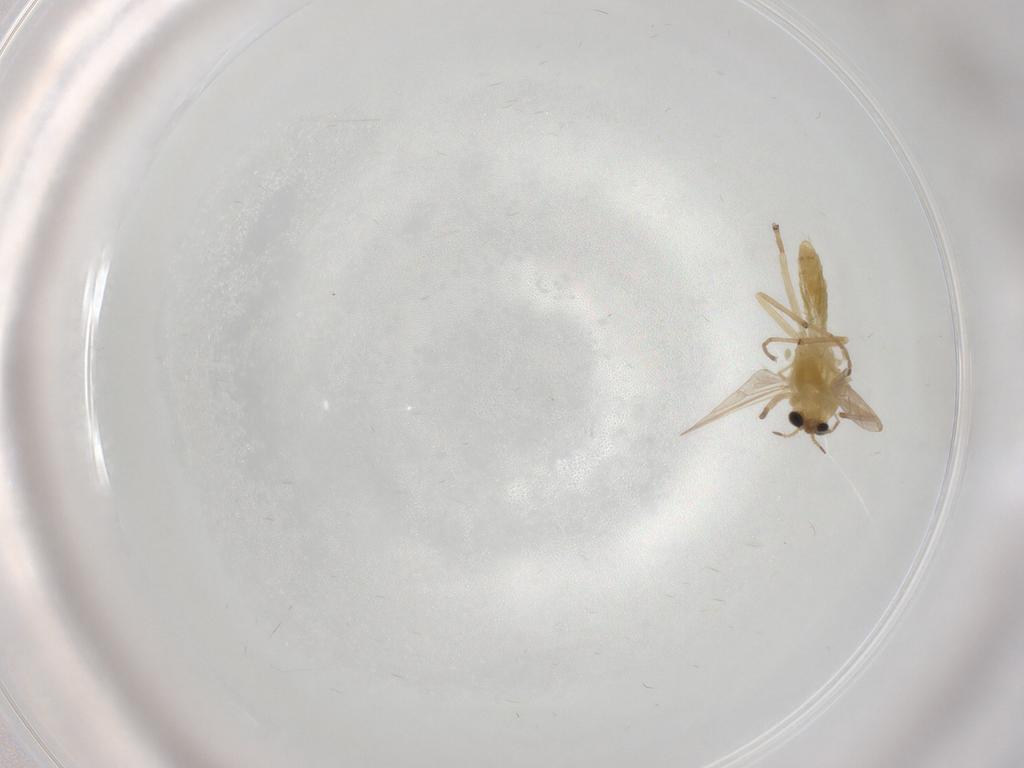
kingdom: Animalia
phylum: Arthropoda
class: Insecta
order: Diptera
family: Chironomidae
